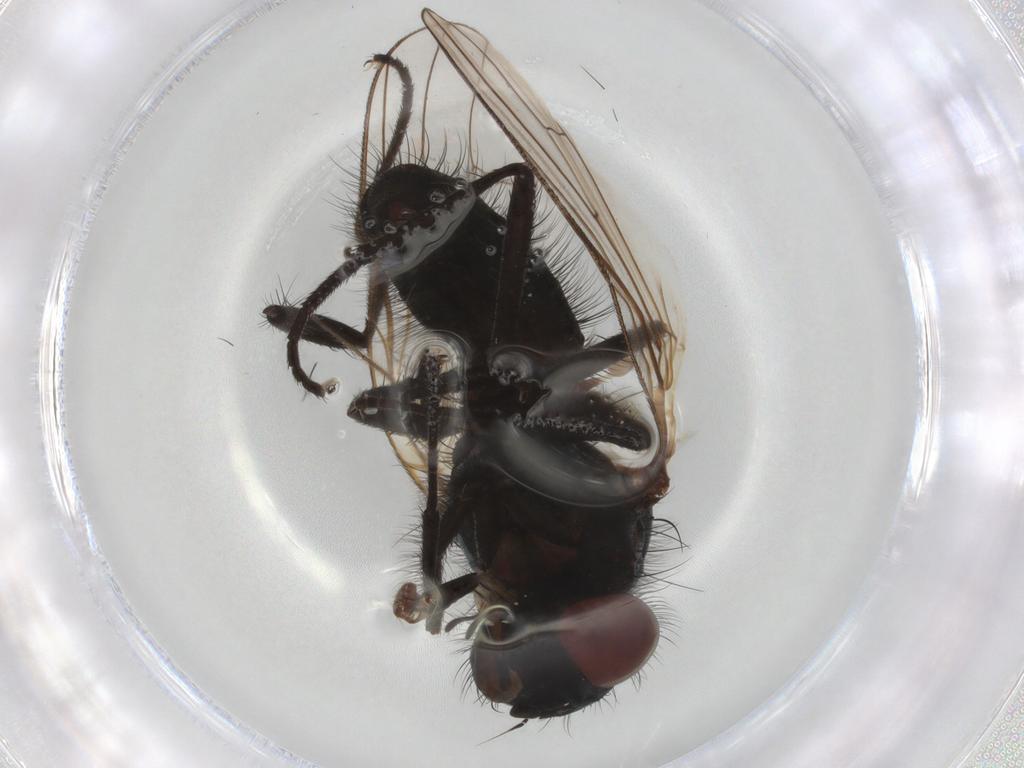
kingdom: Animalia
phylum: Arthropoda
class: Insecta
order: Diptera
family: Anthomyiidae
